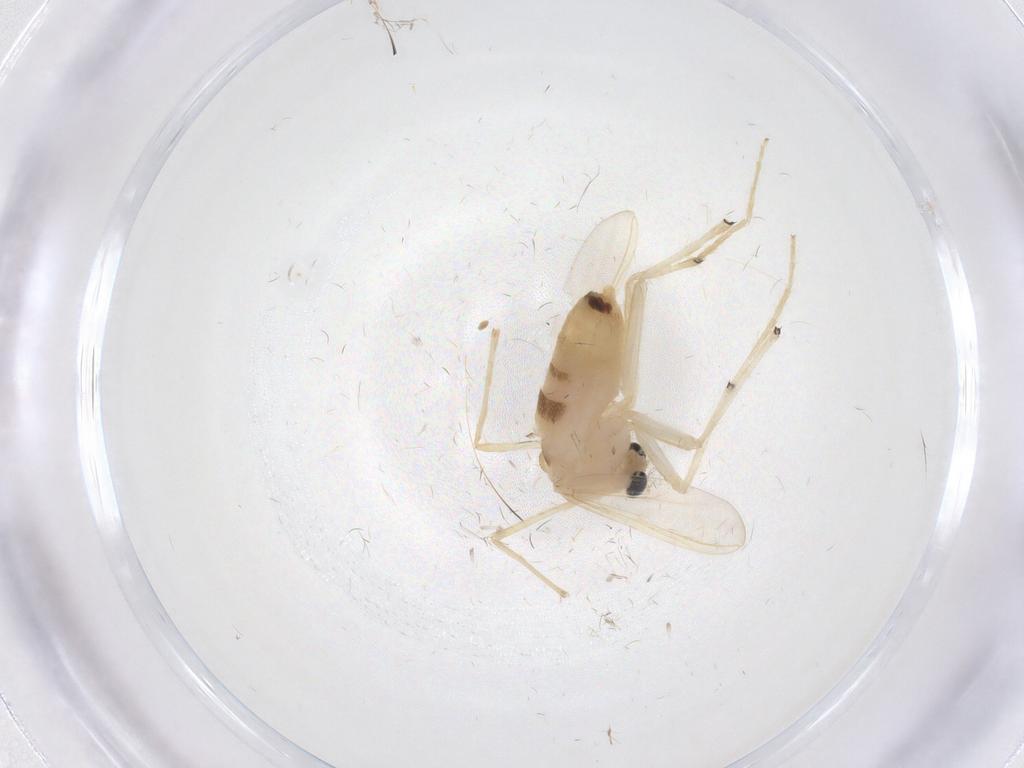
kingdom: Animalia
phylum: Arthropoda
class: Insecta
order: Diptera
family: Chironomidae
